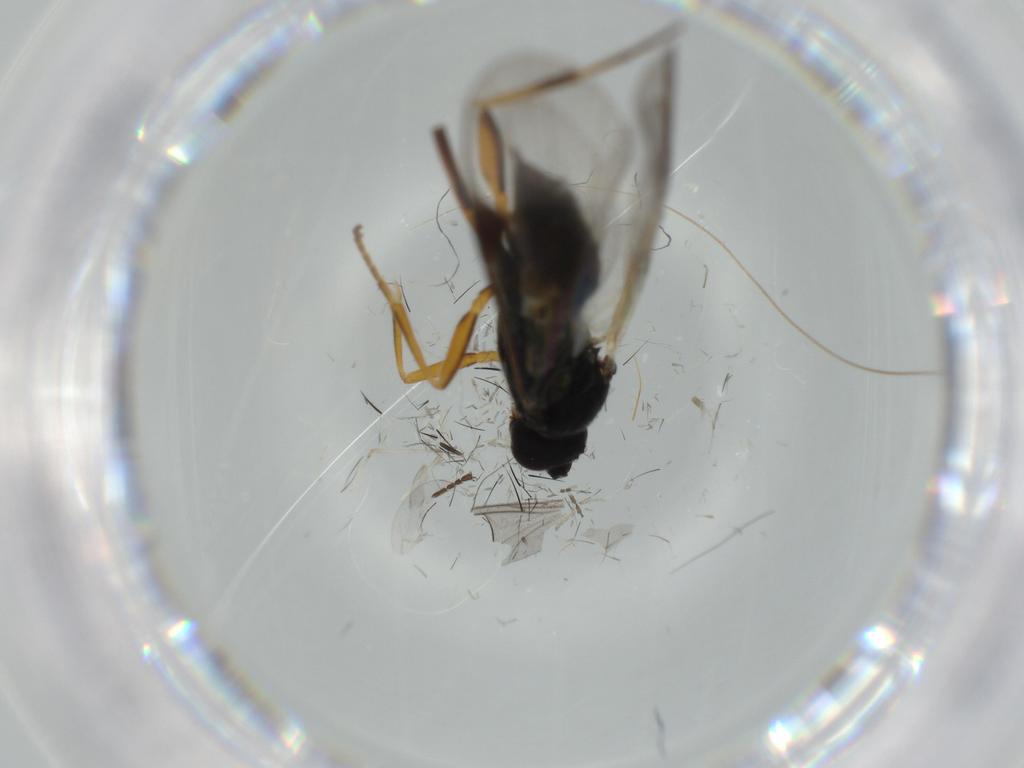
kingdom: Animalia
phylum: Arthropoda
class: Insecta
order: Hymenoptera
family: Braconidae
